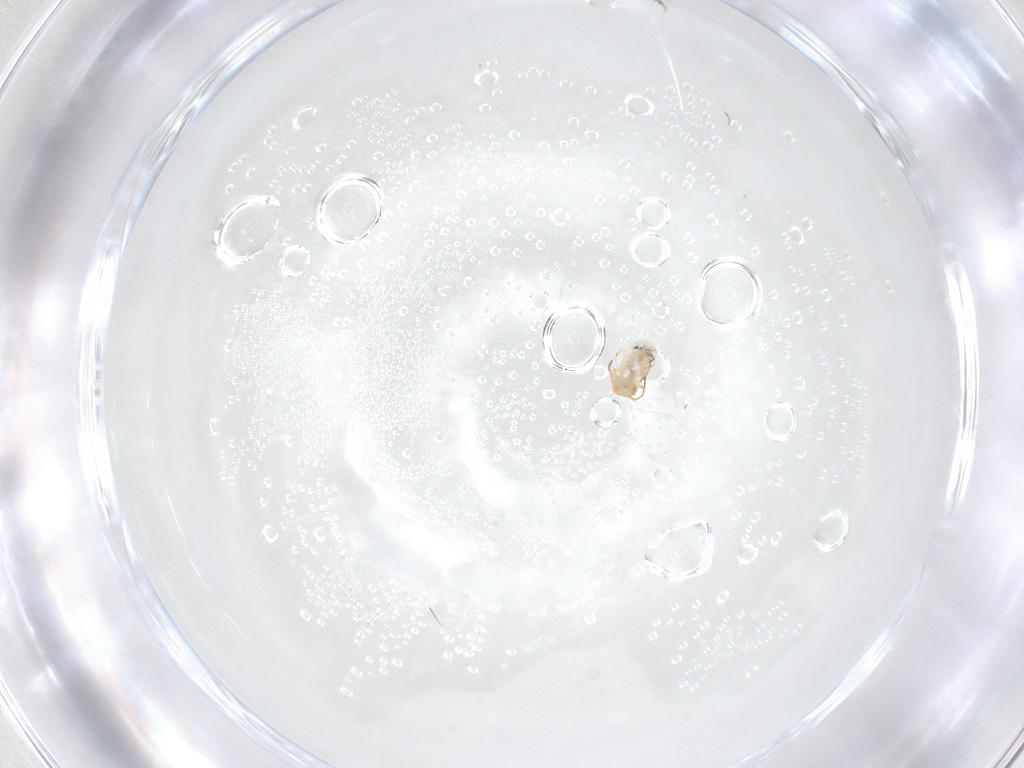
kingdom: Animalia
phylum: Arthropoda
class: Collembola
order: Symphypleona
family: Bourletiellidae
